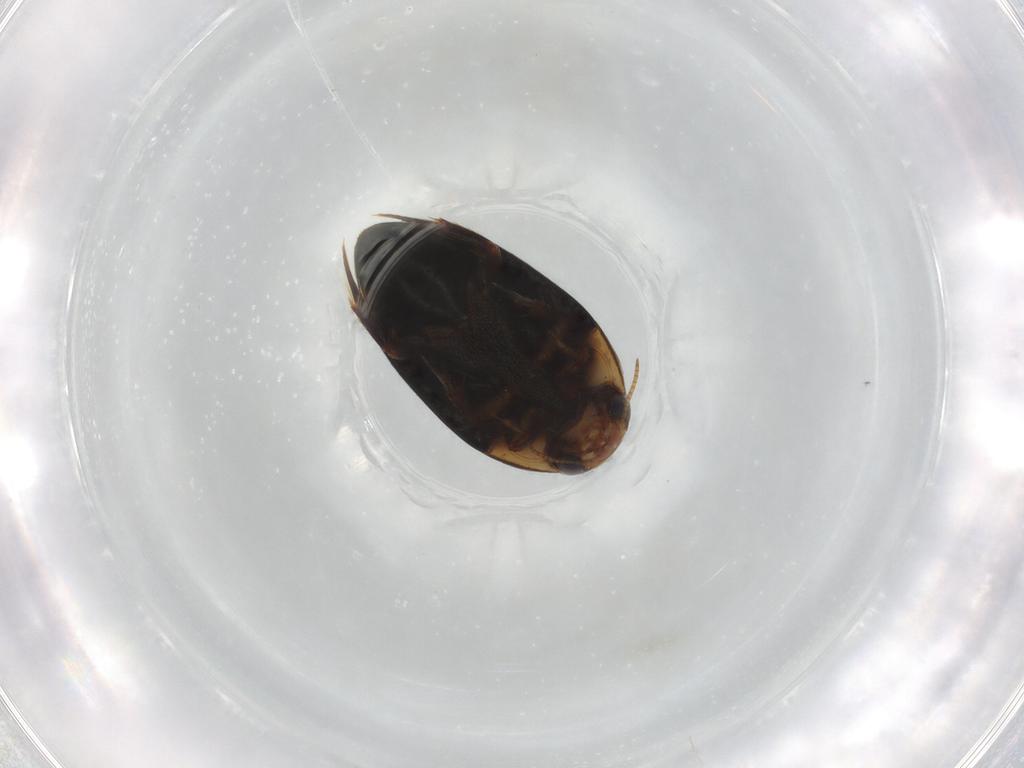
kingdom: Animalia
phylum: Arthropoda
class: Insecta
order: Coleoptera
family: Noteridae
